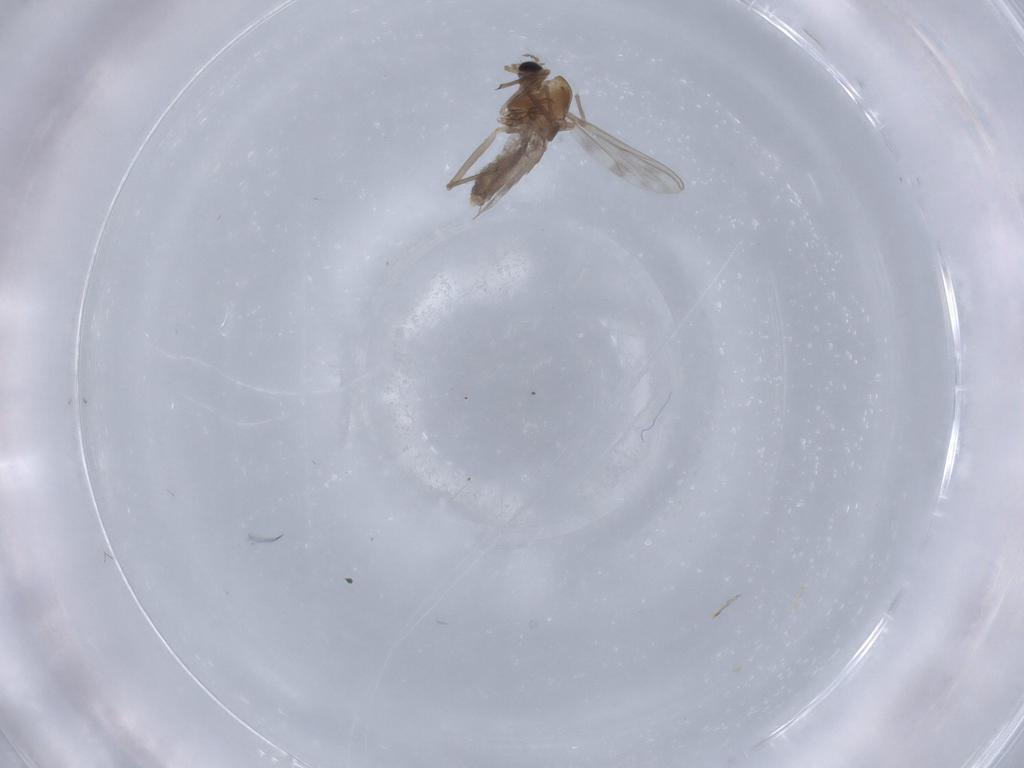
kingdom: Animalia
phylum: Arthropoda
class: Insecta
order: Diptera
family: Chironomidae
